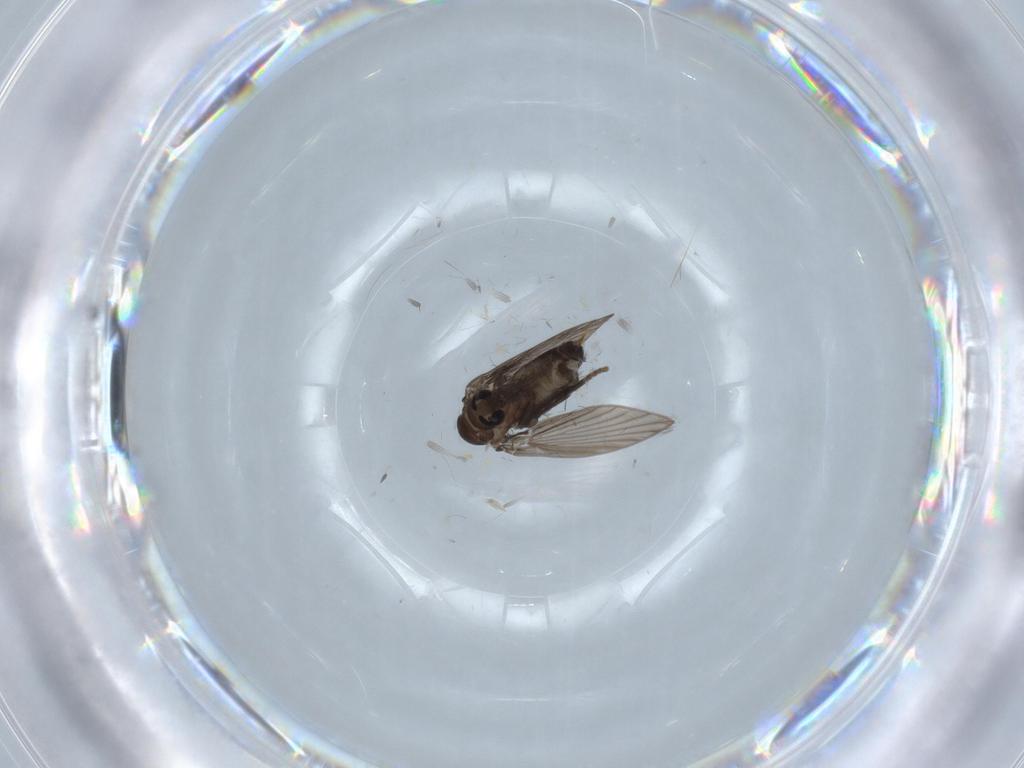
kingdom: Animalia
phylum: Arthropoda
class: Insecta
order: Diptera
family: Psychodidae
